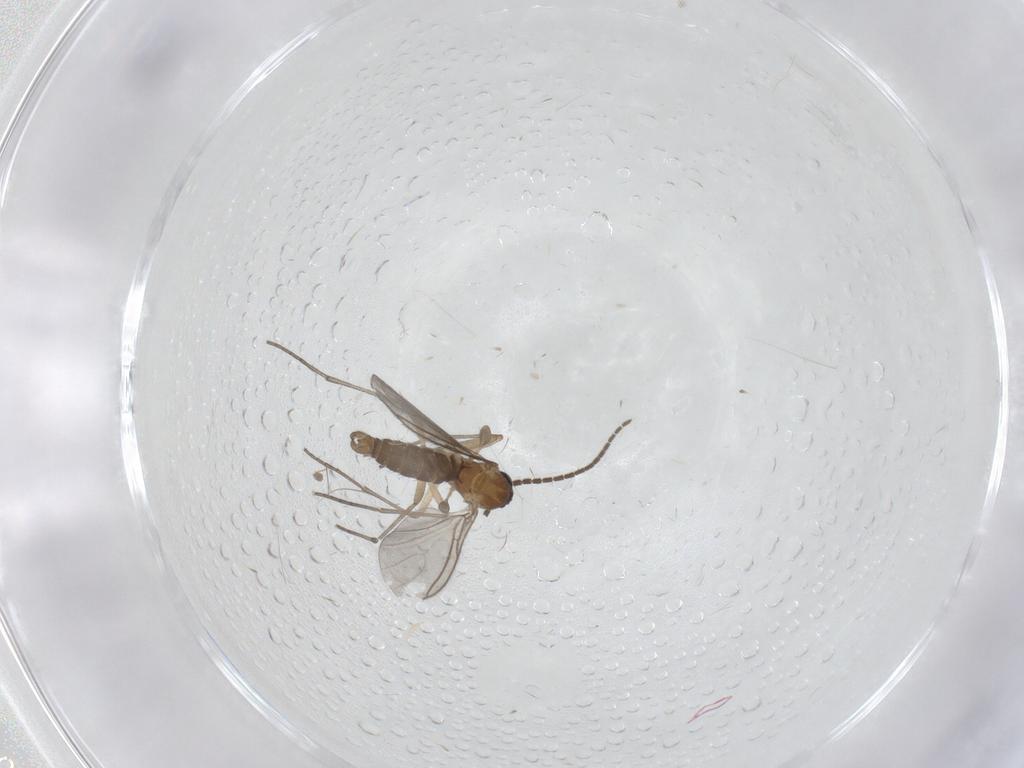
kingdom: Animalia
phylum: Arthropoda
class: Insecta
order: Diptera
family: Sciaridae
